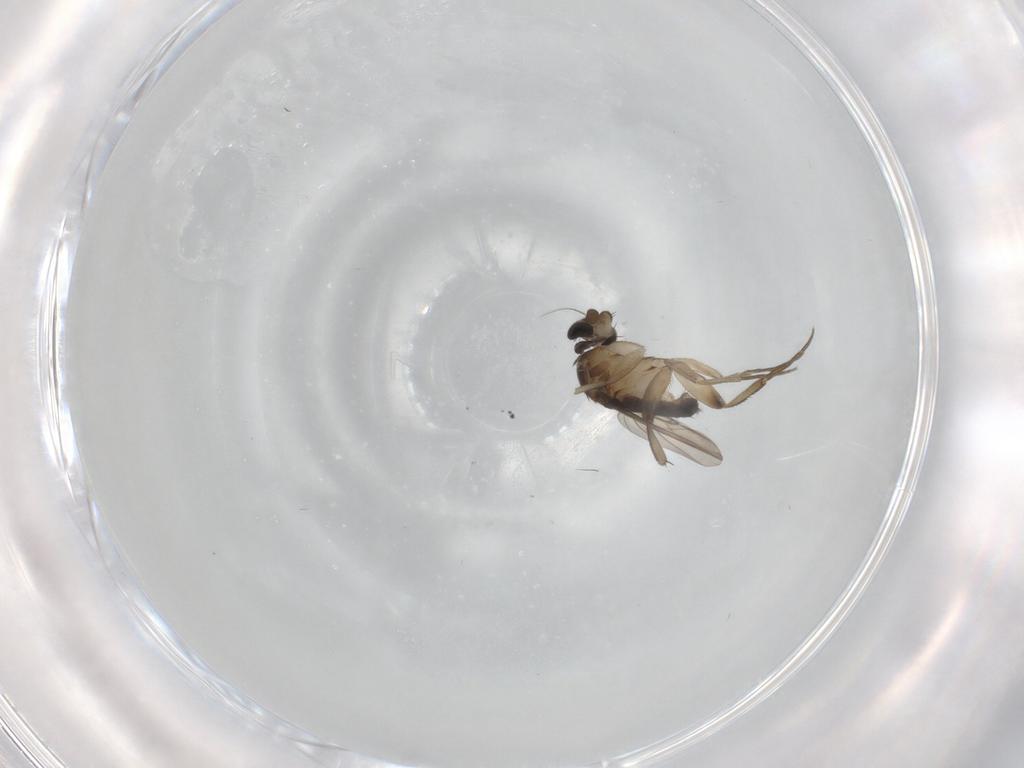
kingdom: Animalia
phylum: Arthropoda
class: Insecta
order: Diptera
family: Phoridae
